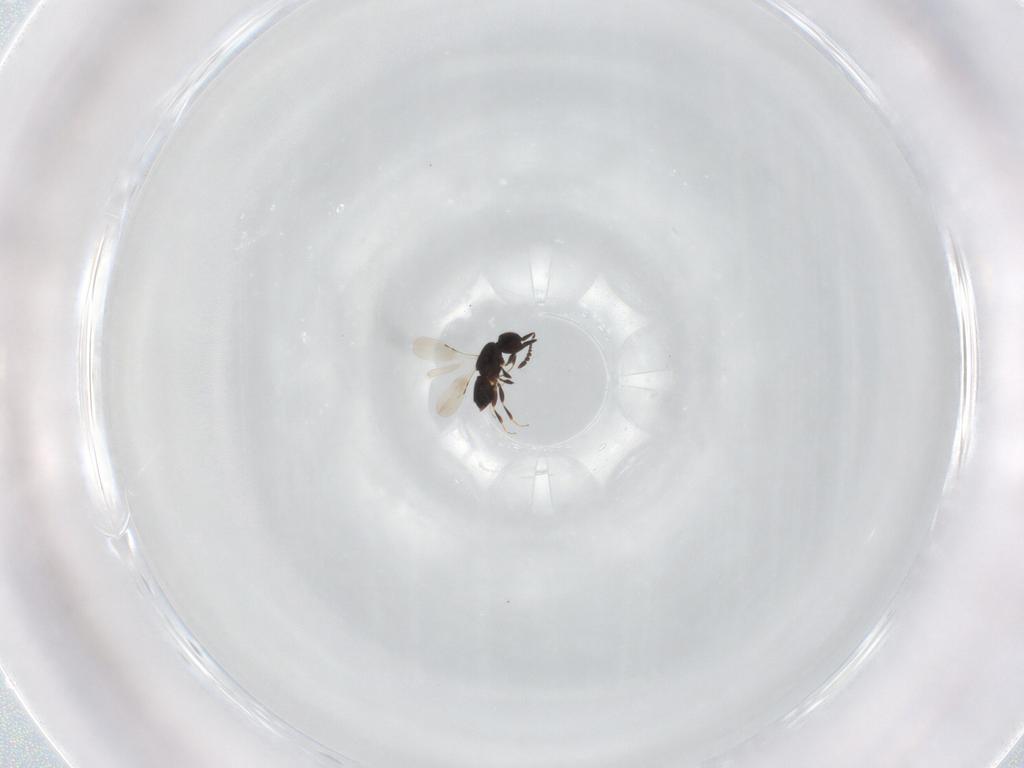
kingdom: Animalia
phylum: Arthropoda
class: Insecta
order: Hymenoptera
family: Eulophidae
